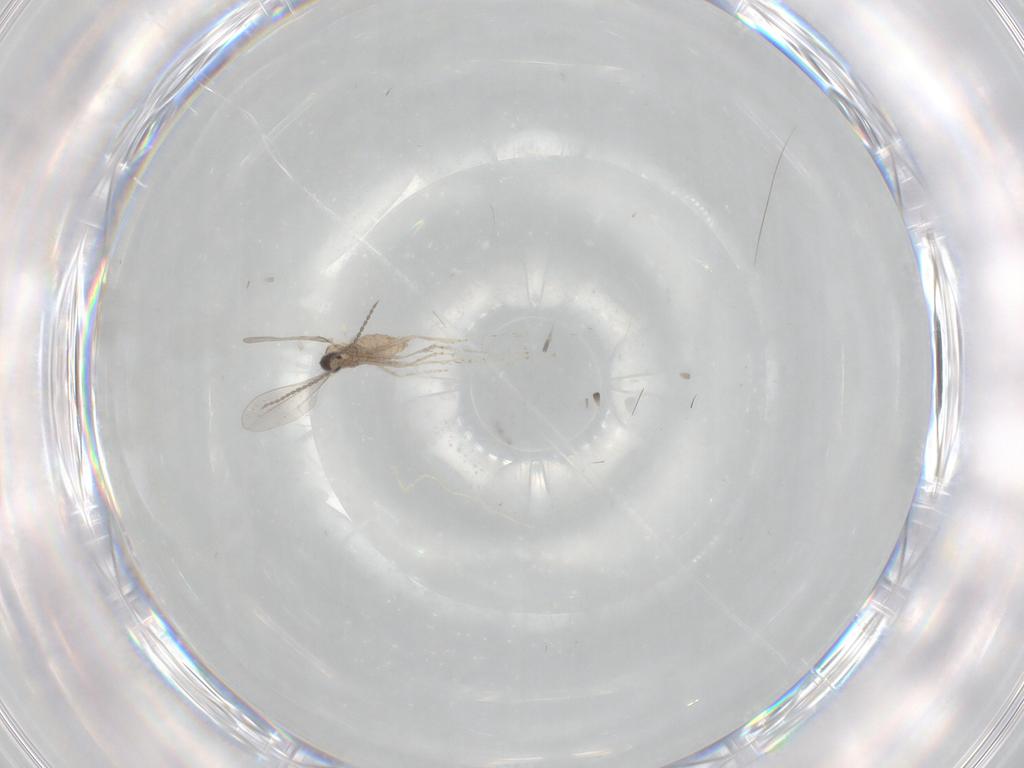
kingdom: Animalia
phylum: Arthropoda
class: Insecta
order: Diptera
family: Cecidomyiidae
